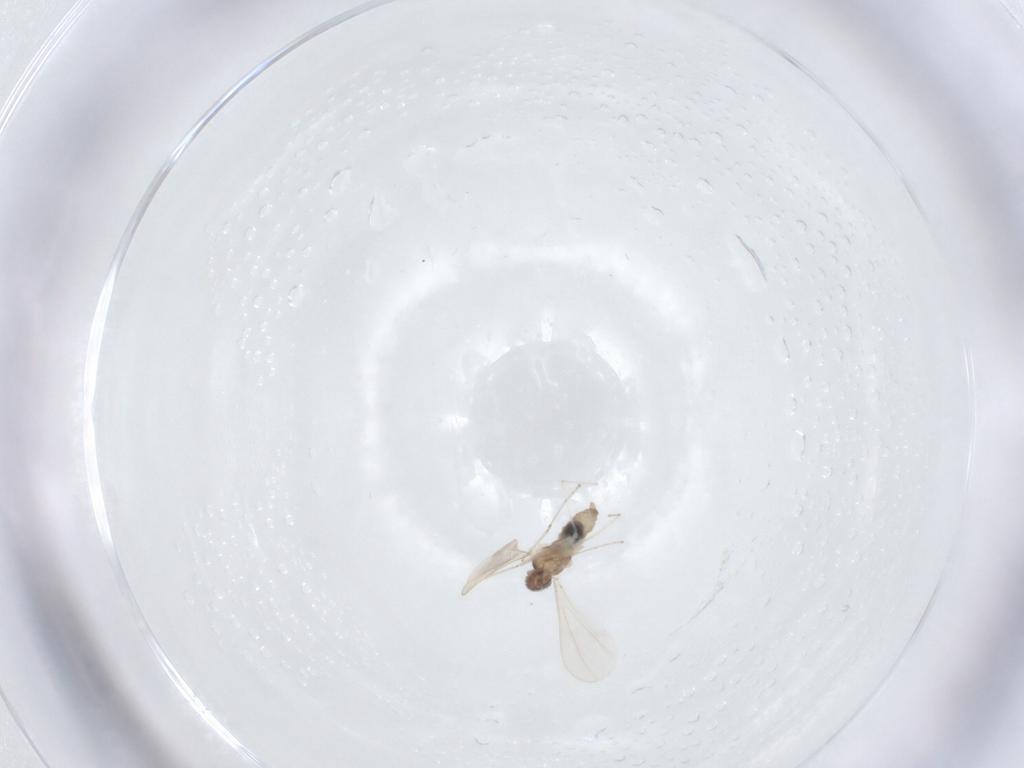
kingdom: Animalia
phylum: Arthropoda
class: Insecta
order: Diptera
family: Cecidomyiidae
